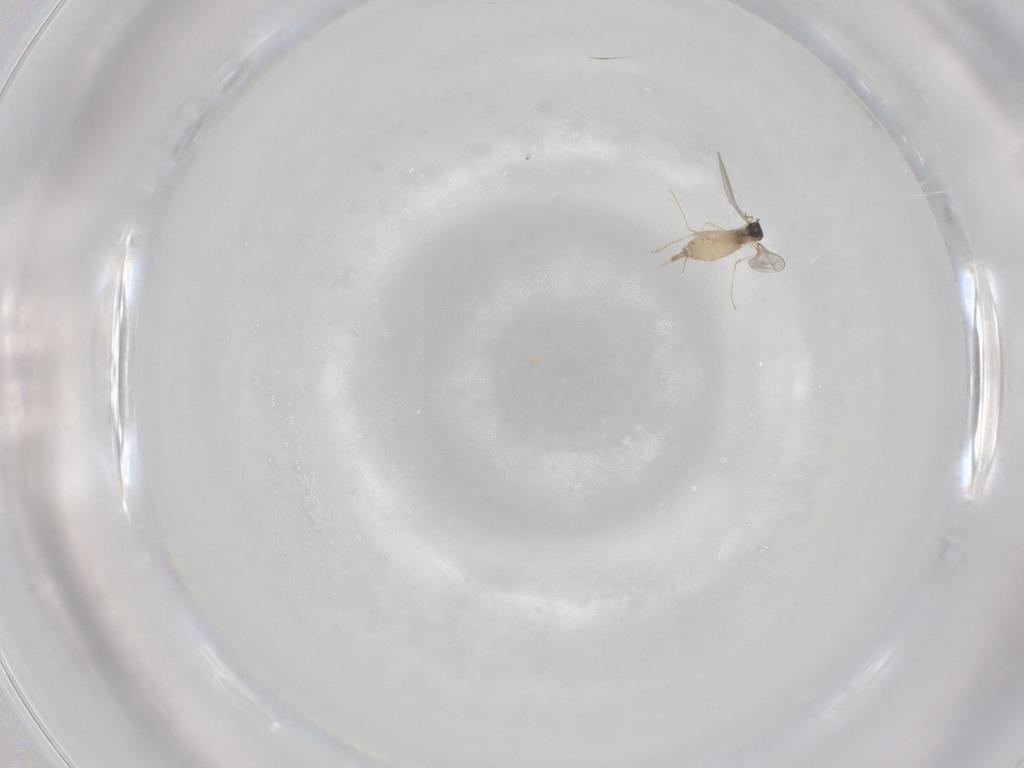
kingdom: Animalia
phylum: Arthropoda
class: Insecta
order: Diptera
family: Cecidomyiidae
